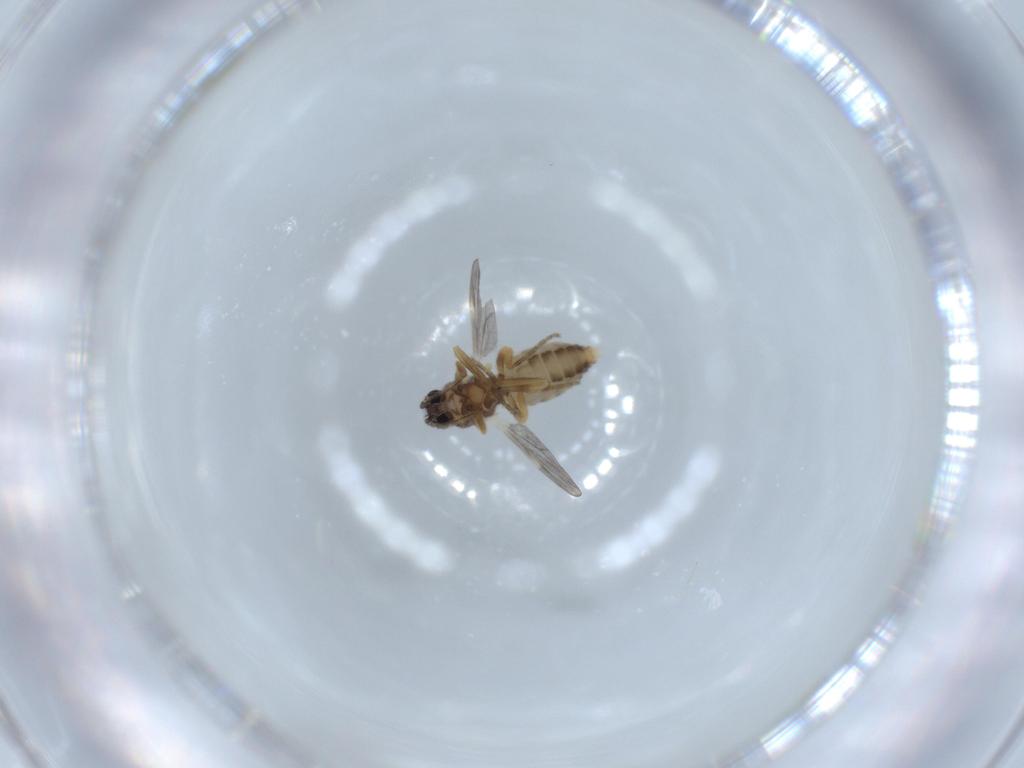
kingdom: Animalia
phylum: Arthropoda
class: Insecta
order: Diptera
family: Ceratopogonidae
